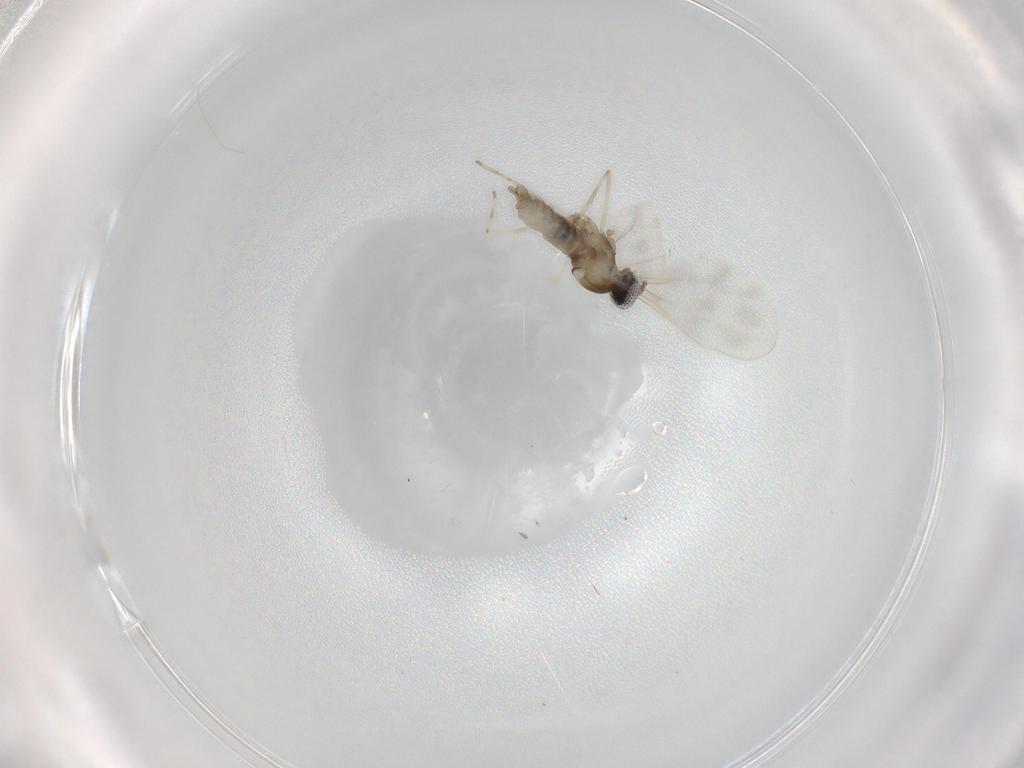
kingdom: Animalia
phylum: Arthropoda
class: Insecta
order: Diptera
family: Cecidomyiidae
